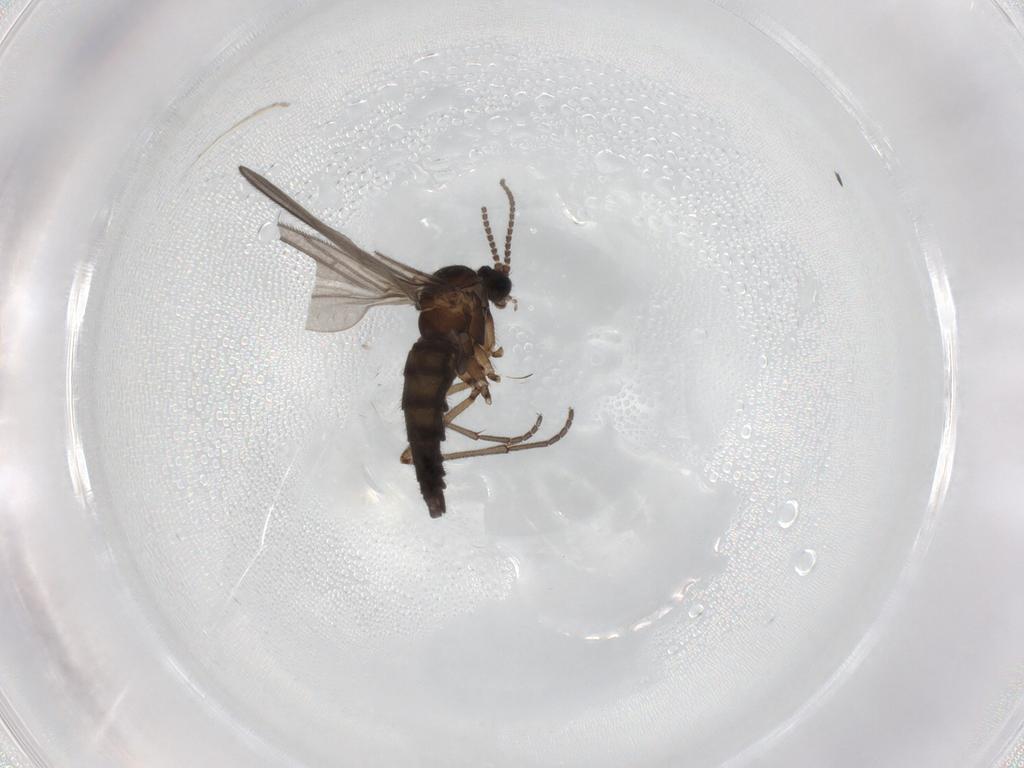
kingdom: Animalia
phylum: Arthropoda
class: Insecta
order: Diptera
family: Sciaridae
